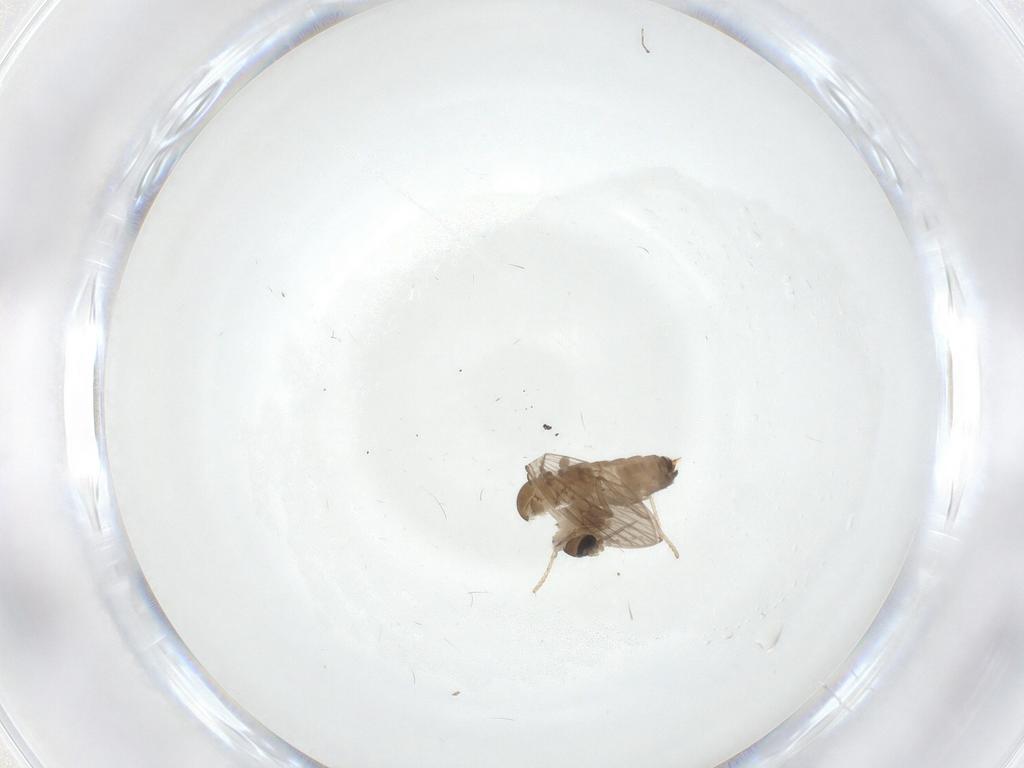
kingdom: Animalia
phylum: Arthropoda
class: Insecta
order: Diptera
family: Psychodidae
